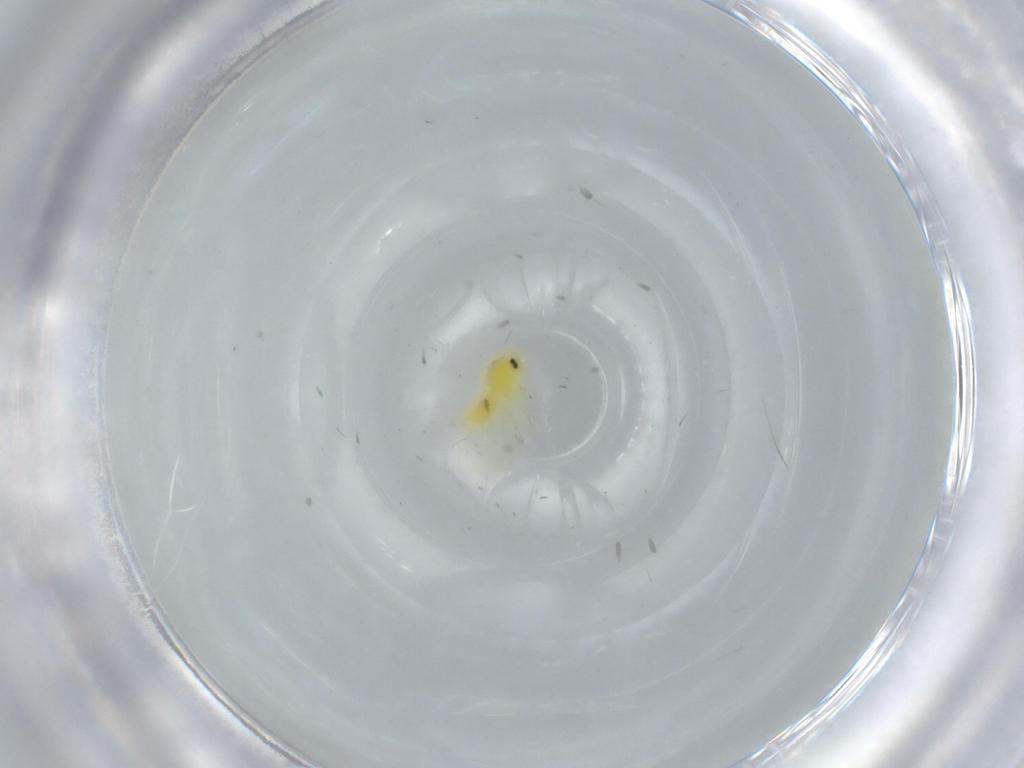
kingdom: Animalia
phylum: Arthropoda
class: Insecta
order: Hemiptera
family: Aleyrodidae
